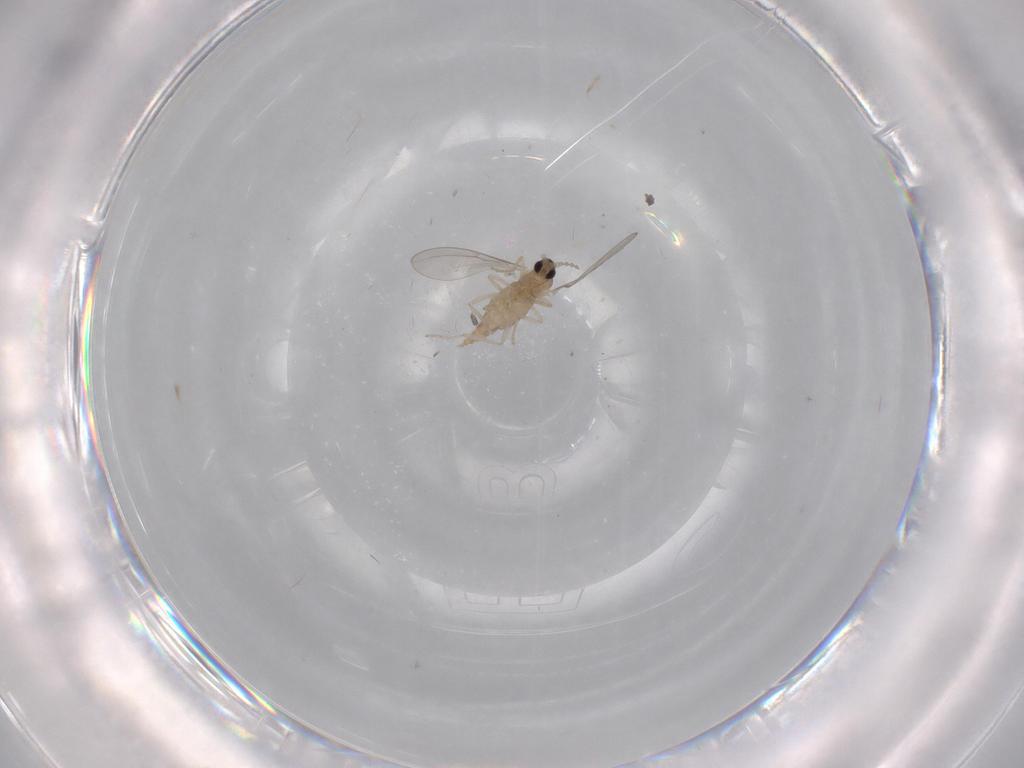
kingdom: Animalia
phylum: Arthropoda
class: Insecta
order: Diptera
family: Cecidomyiidae
